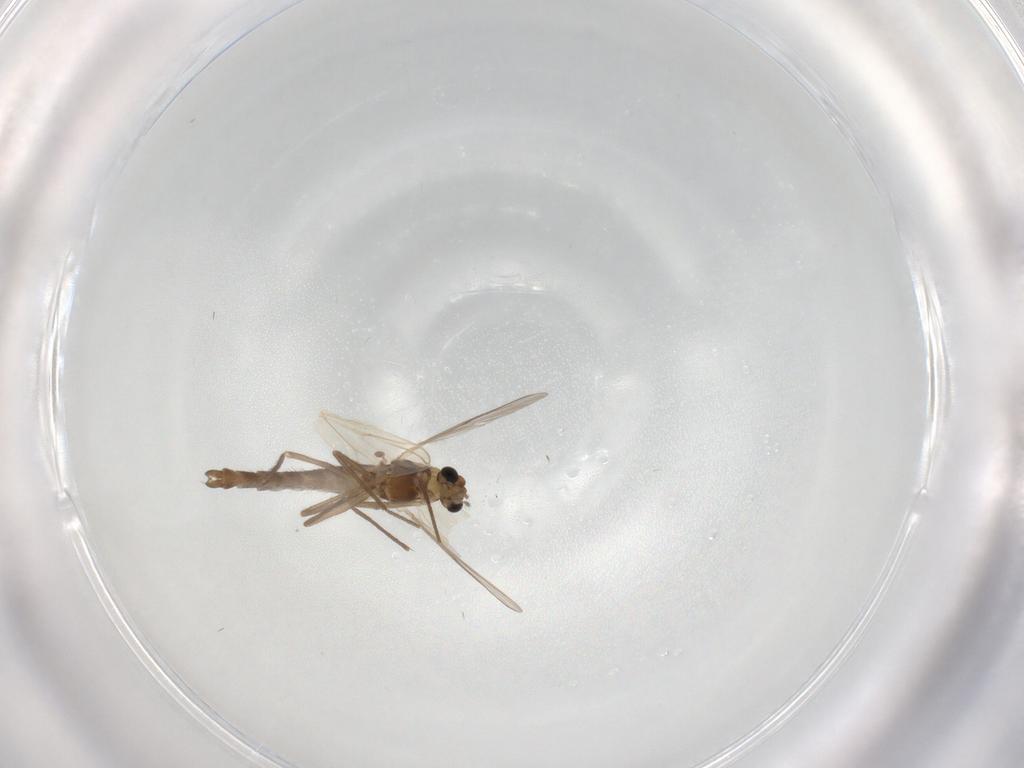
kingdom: Animalia
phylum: Arthropoda
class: Insecta
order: Diptera
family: Chironomidae
